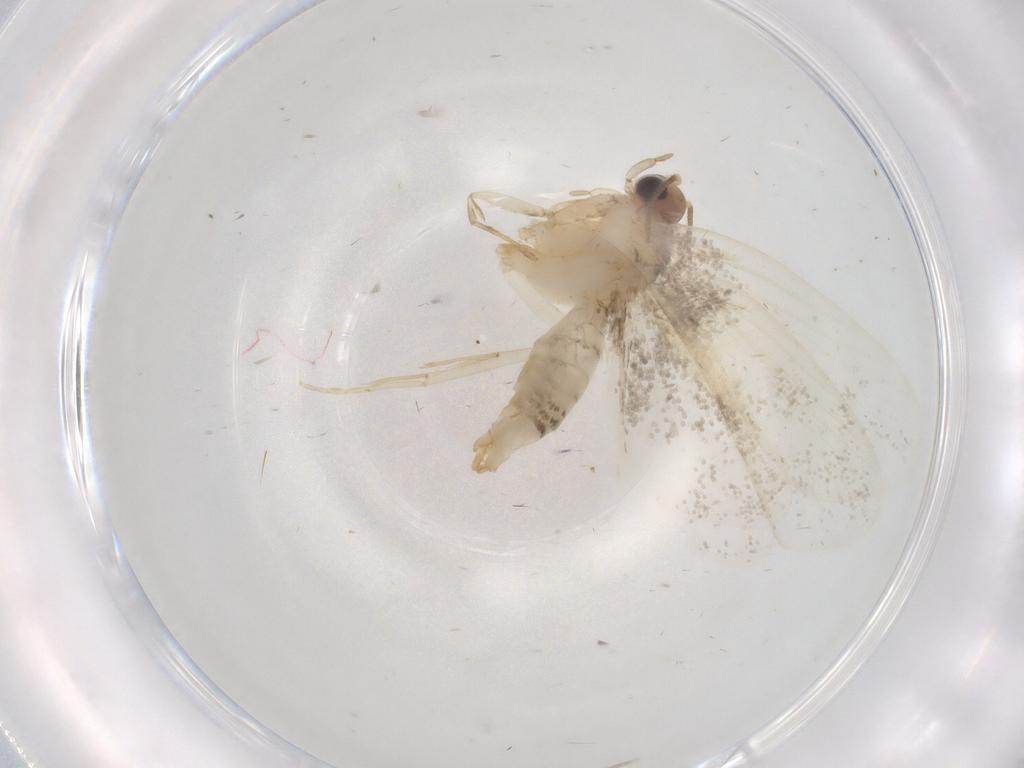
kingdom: Animalia
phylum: Arthropoda
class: Insecta
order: Lepidoptera
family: Psychidae
